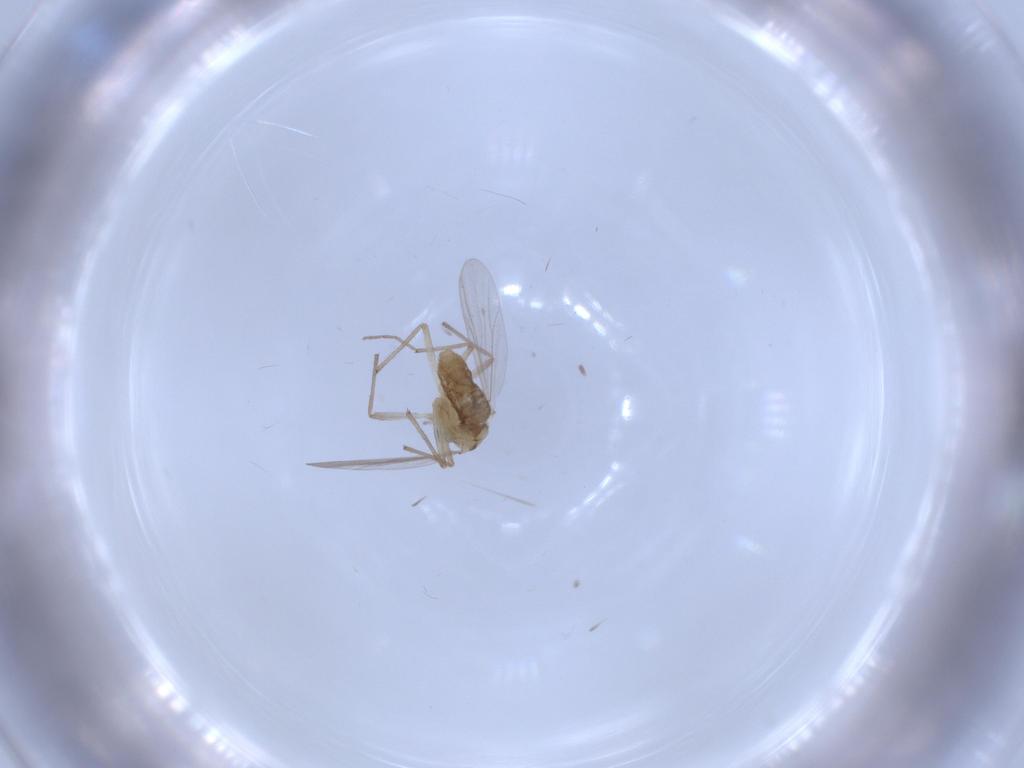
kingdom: Animalia
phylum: Arthropoda
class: Insecta
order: Diptera
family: Chironomidae
